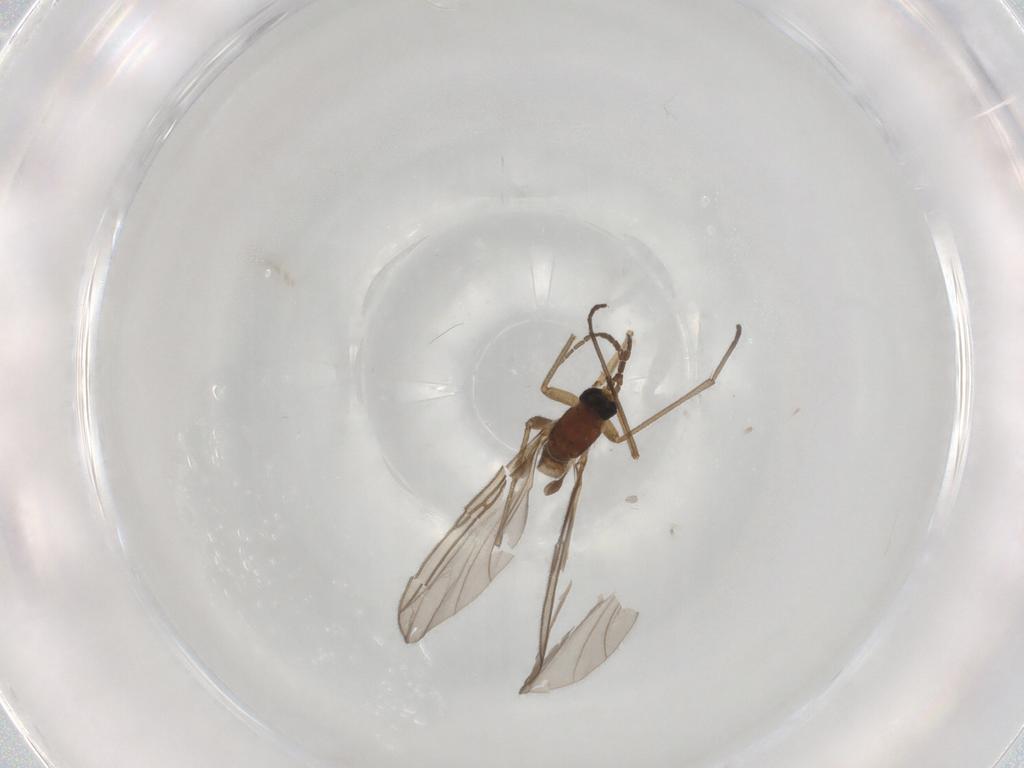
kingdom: Animalia
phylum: Arthropoda
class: Insecta
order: Diptera
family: Sciaridae
